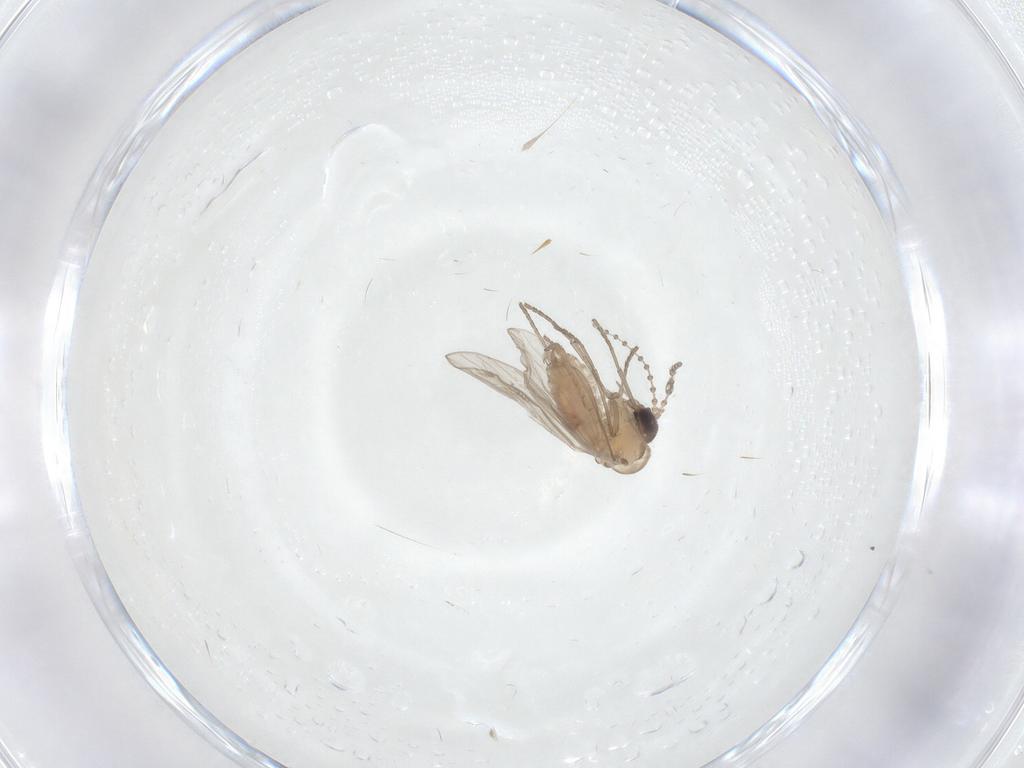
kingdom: Animalia
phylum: Arthropoda
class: Insecta
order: Diptera
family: Psychodidae
